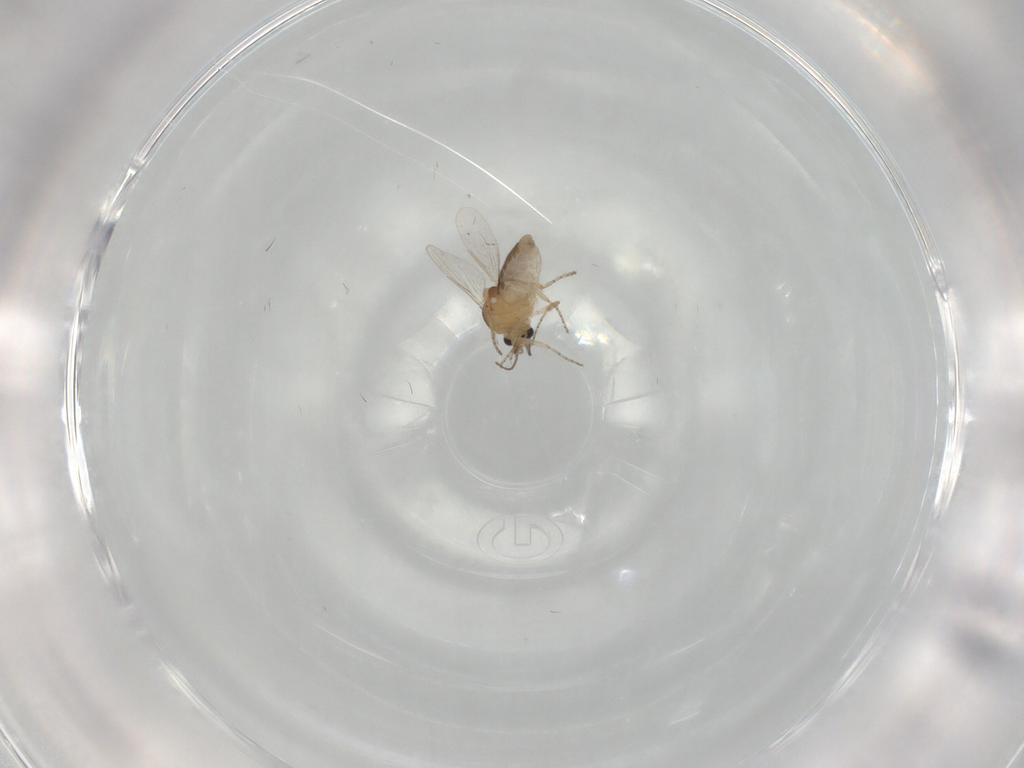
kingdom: Animalia
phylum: Arthropoda
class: Insecta
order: Diptera
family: Ceratopogonidae
